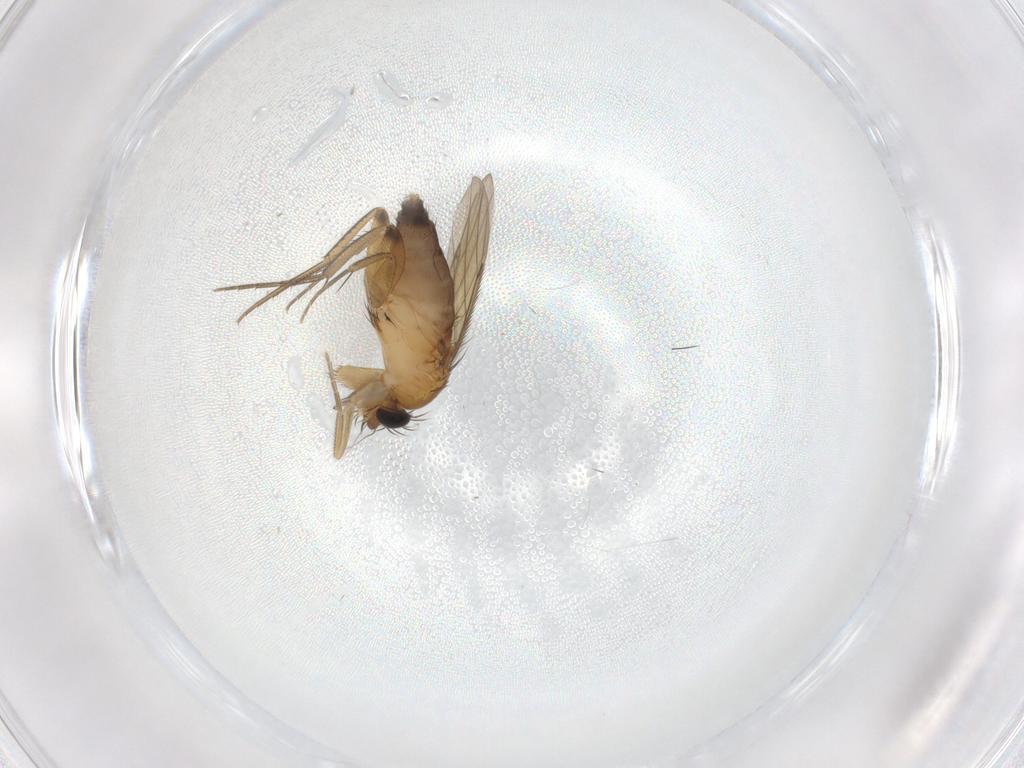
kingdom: Animalia
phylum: Arthropoda
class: Insecta
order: Diptera
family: Phoridae
